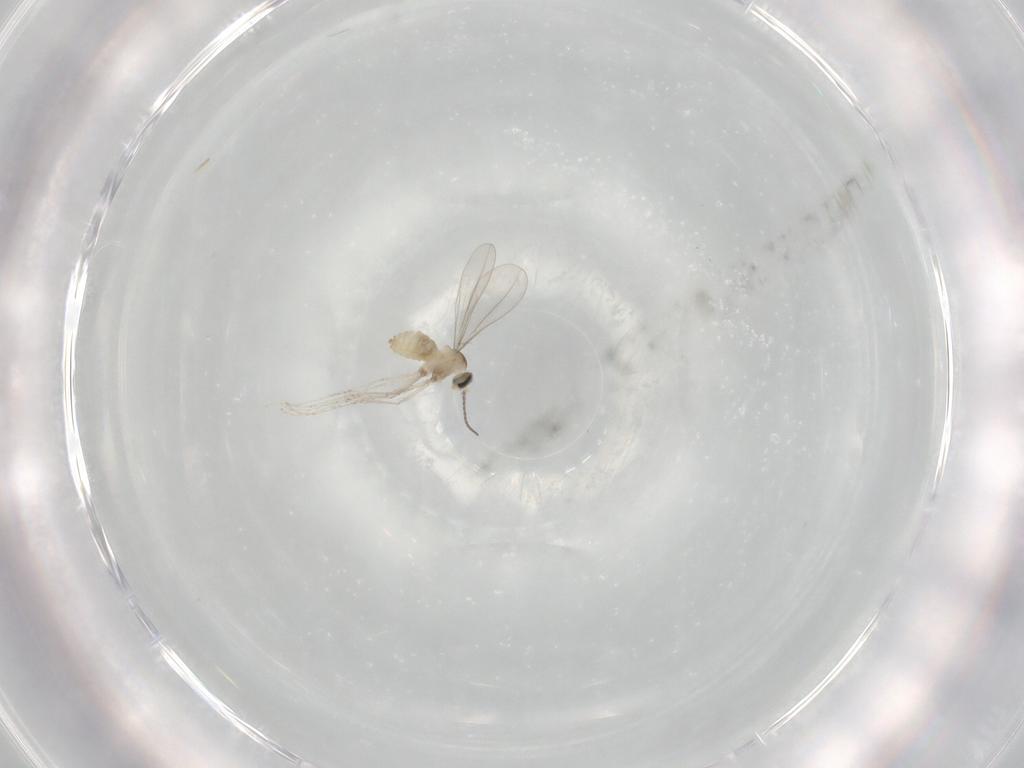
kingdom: Animalia
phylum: Arthropoda
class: Insecta
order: Diptera
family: Cecidomyiidae
